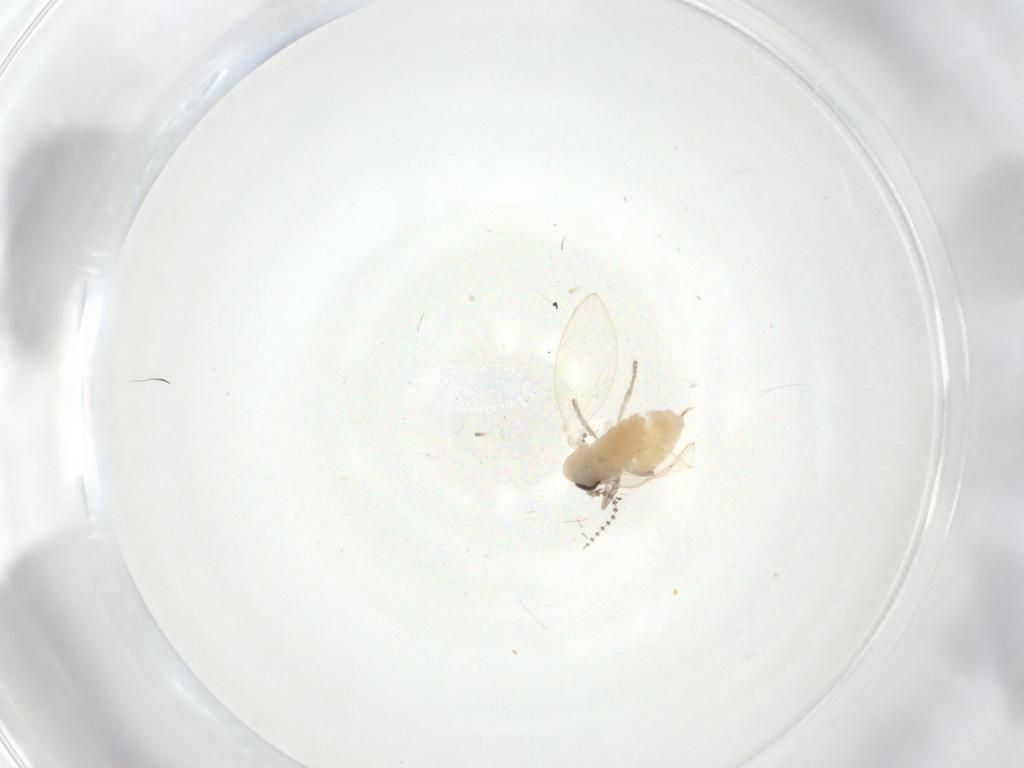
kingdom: Animalia
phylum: Arthropoda
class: Insecta
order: Diptera
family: Psychodidae
